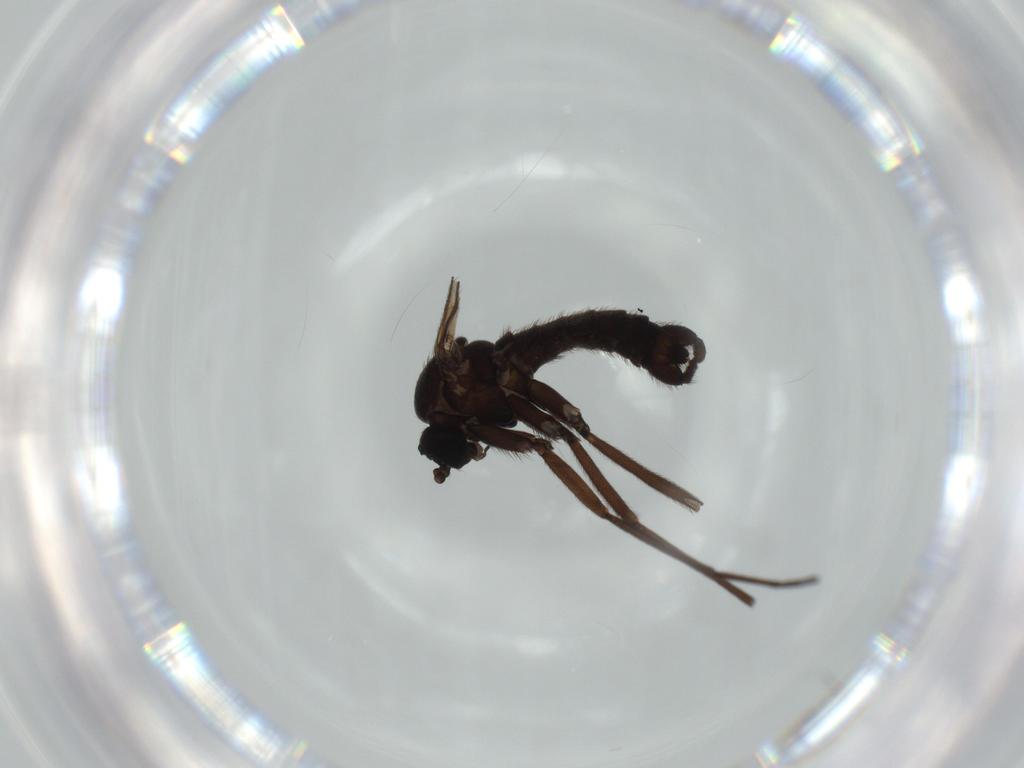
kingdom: Animalia
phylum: Arthropoda
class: Insecta
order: Diptera
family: Sciaridae
